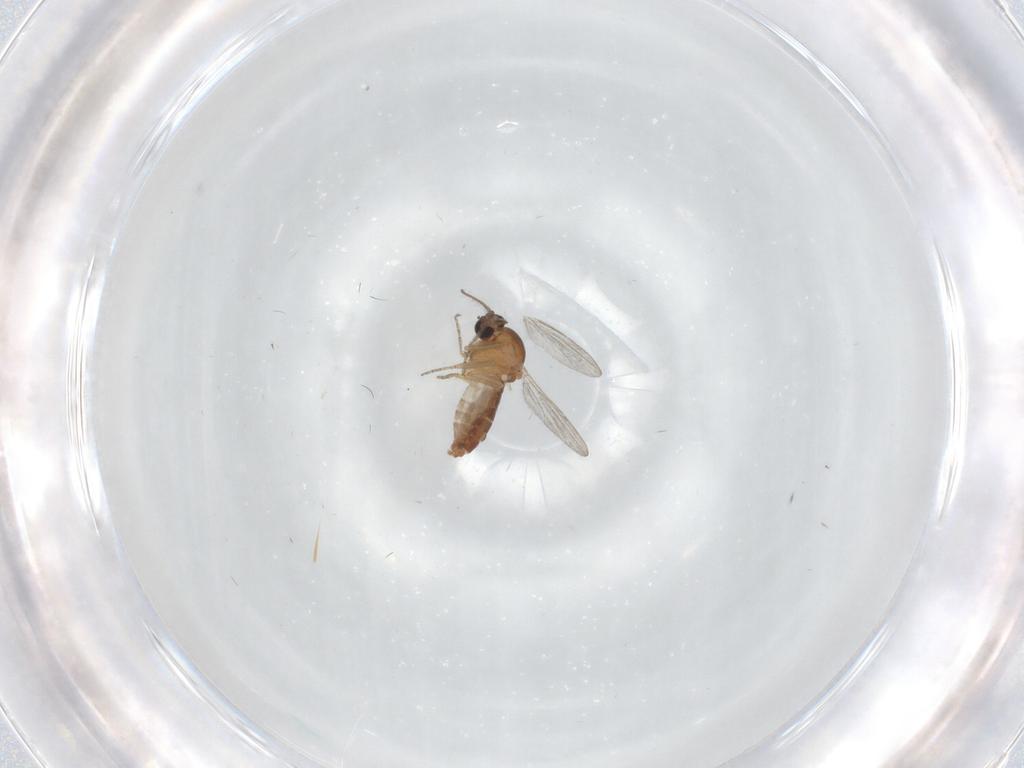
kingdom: Animalia
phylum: Arthropoda
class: Insecta
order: Diptera
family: Ceratopogonidae
